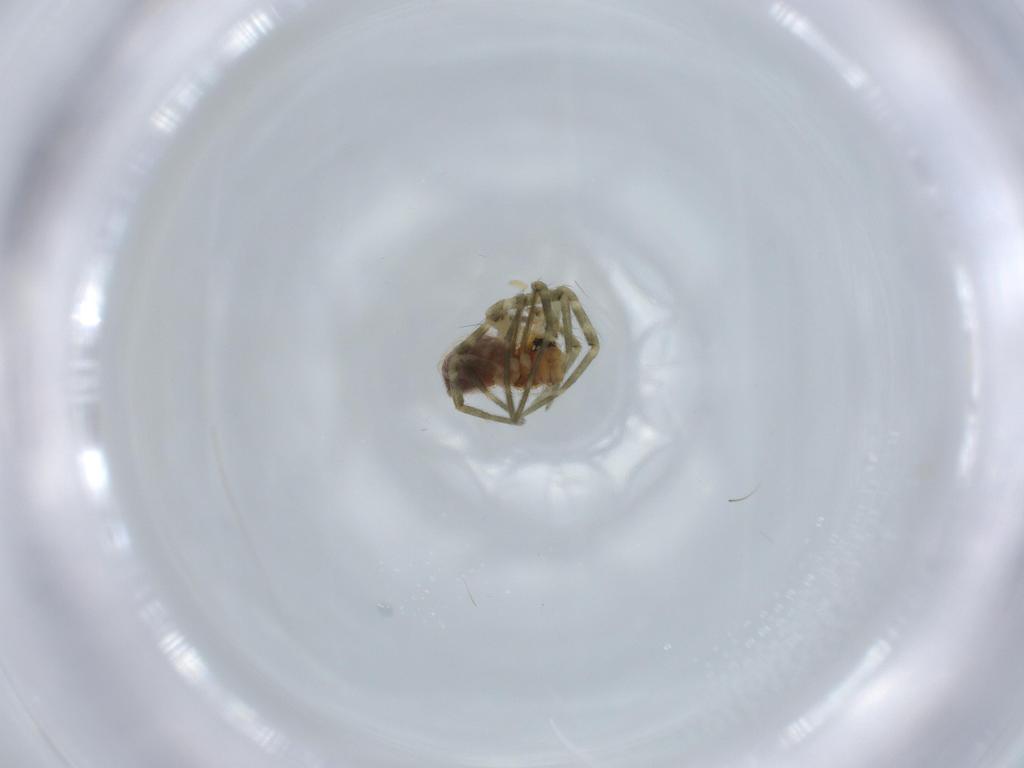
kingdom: Animalia
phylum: Arthropoda
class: Arachnida
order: Araneae
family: Linyphiidae
